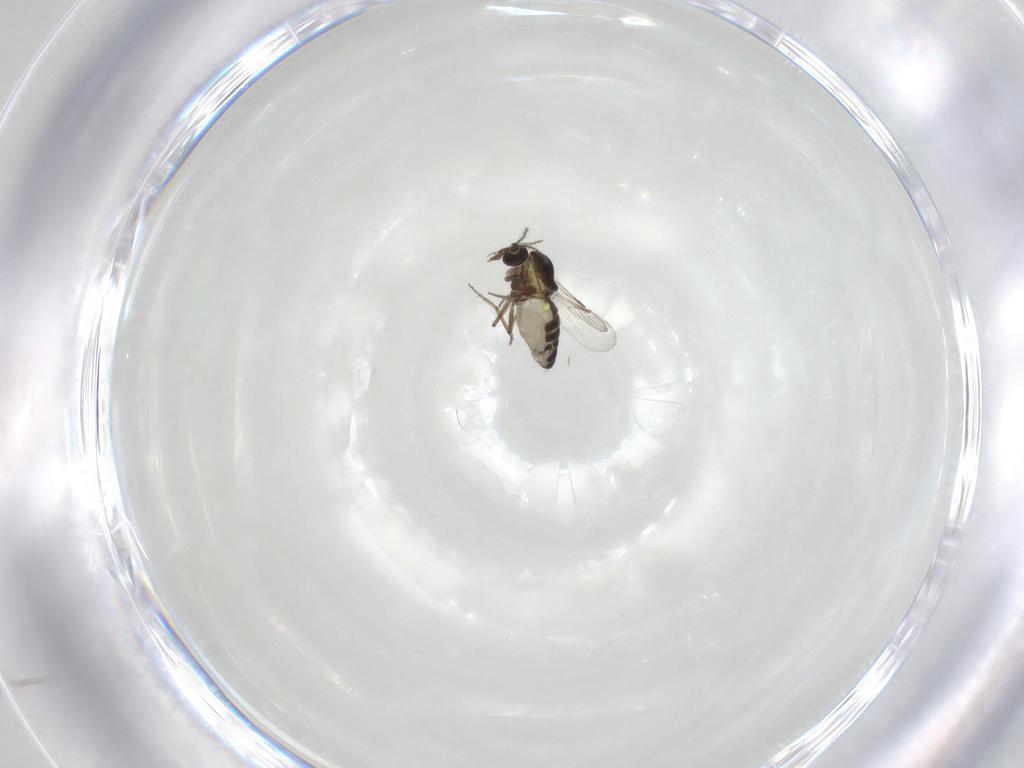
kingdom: Animalia
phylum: Arthropoda
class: Insecta
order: Diptera
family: Ceratopogonidae
